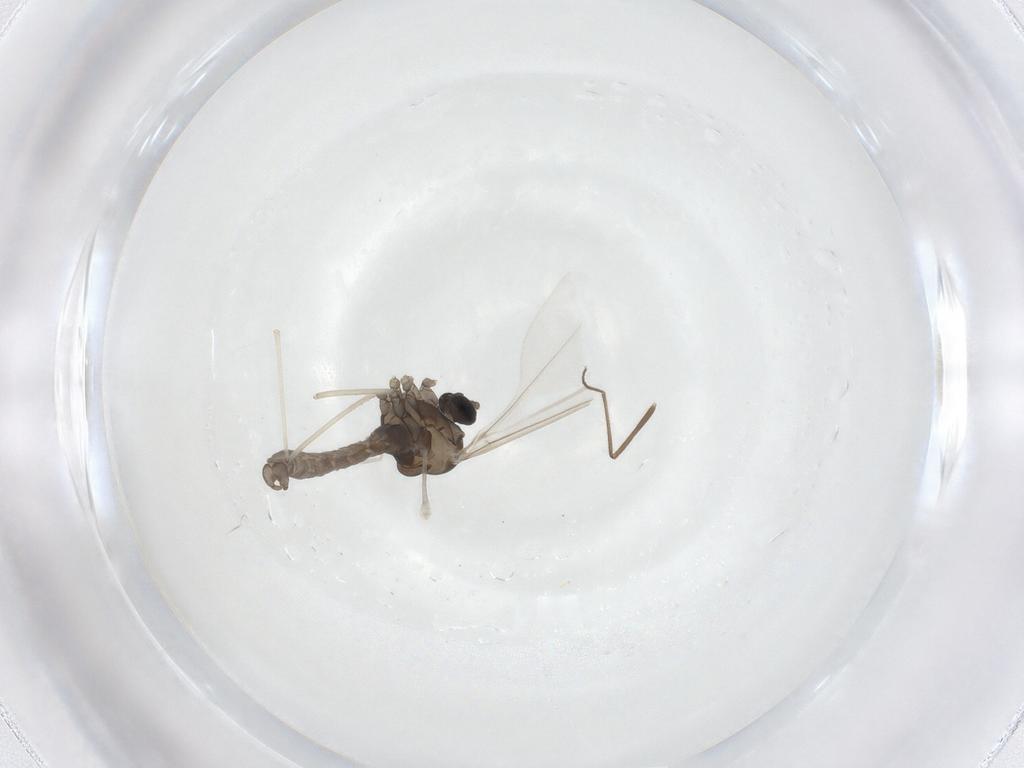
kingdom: Animalia
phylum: Arthropoda
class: Insecta
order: Diptera
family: Cecidomyiidae
